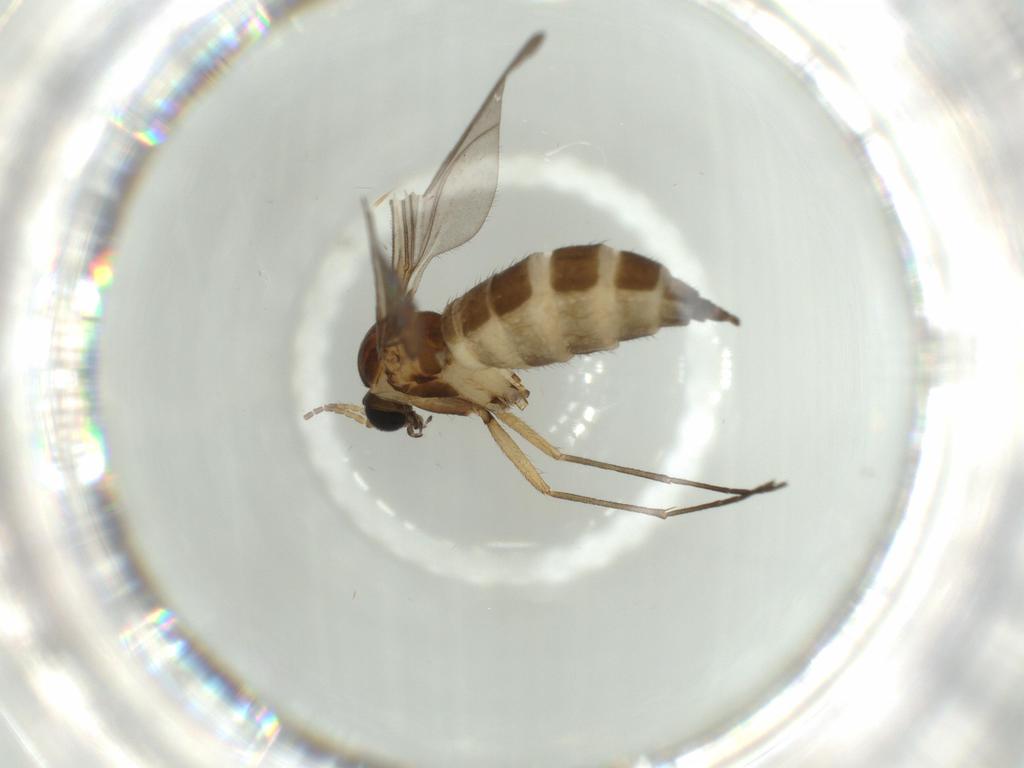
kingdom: Animalia
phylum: Arthropoda
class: Insecta
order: Diptera
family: Sciaridae
